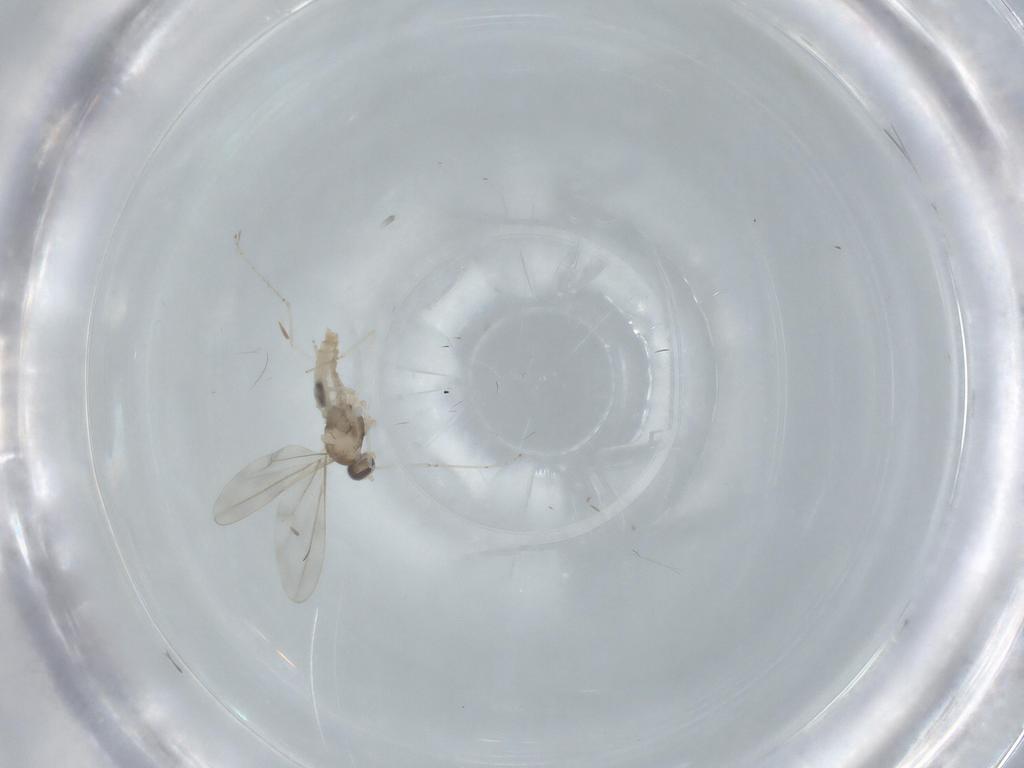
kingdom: Animalia
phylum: Arthropoda
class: Insecta
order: Diptera
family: Cecidomyiidae
